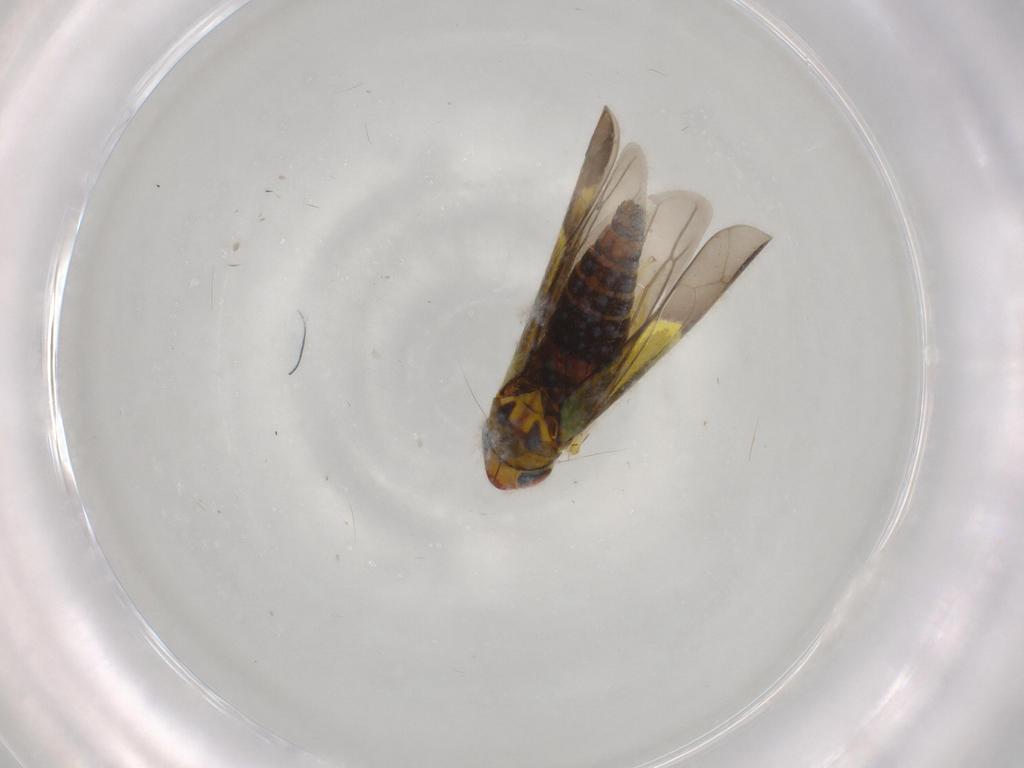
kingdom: Animalia
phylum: Arthropoda
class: Insecta
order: Hemiptera
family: Cicadellidae
